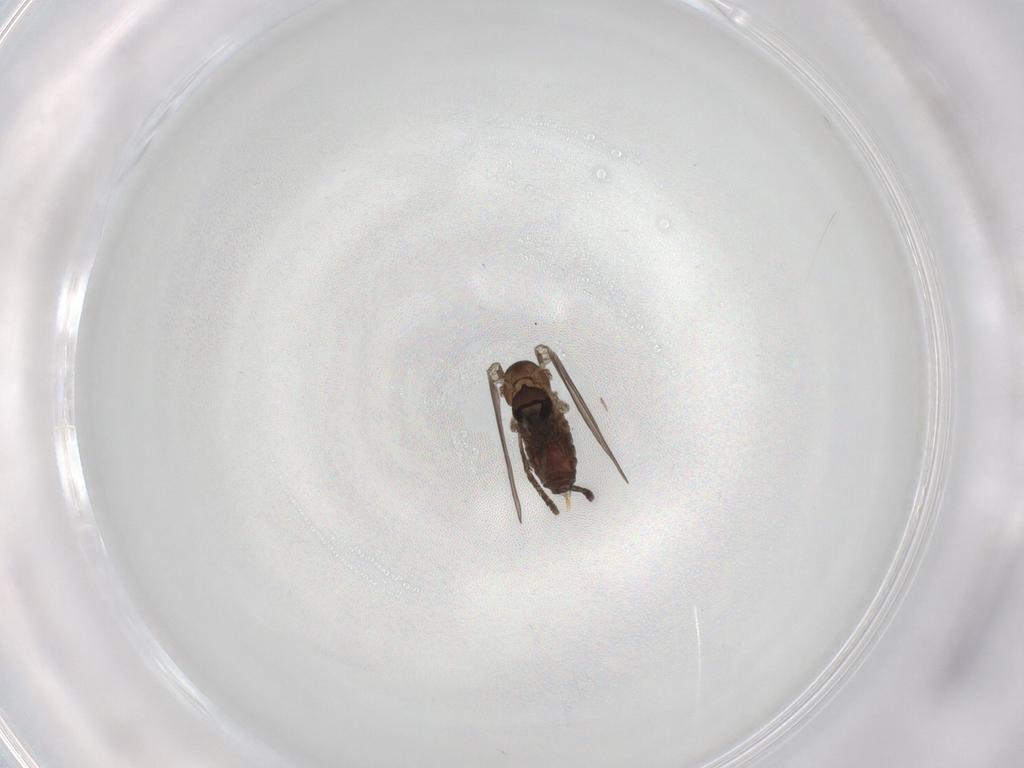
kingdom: Animalia
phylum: Arthropoda
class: Insecta
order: Diptera
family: Psychodidae
